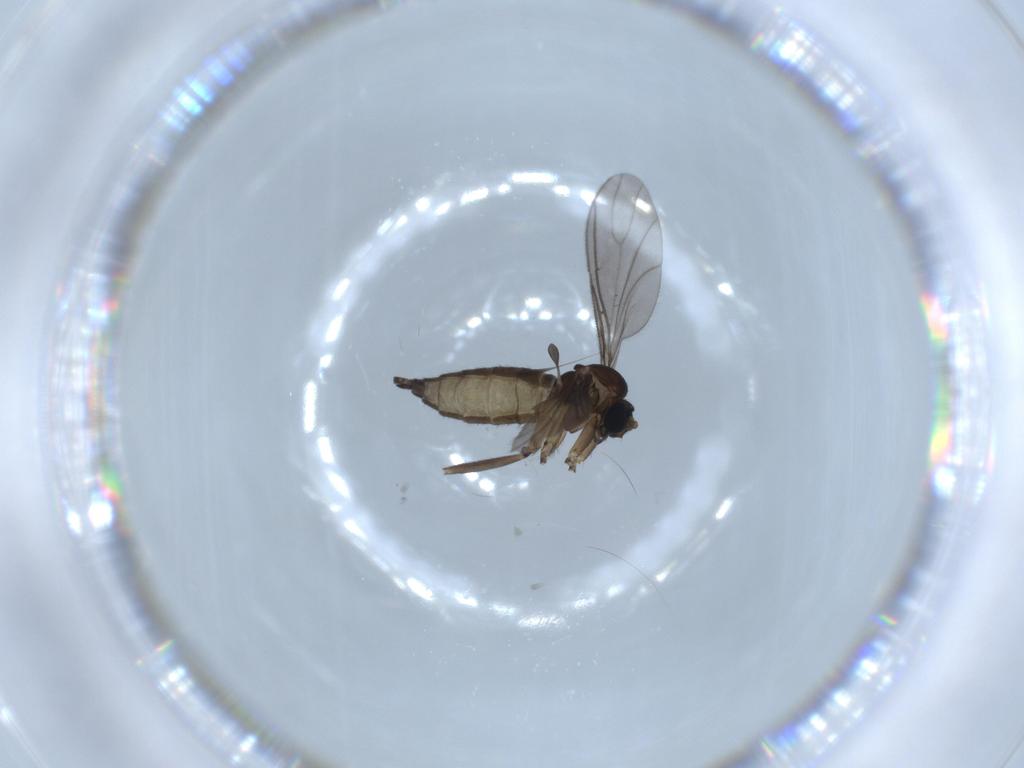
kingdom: Animalia
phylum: Arthropoda
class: Insecta
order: Diptera
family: Sciaridae
